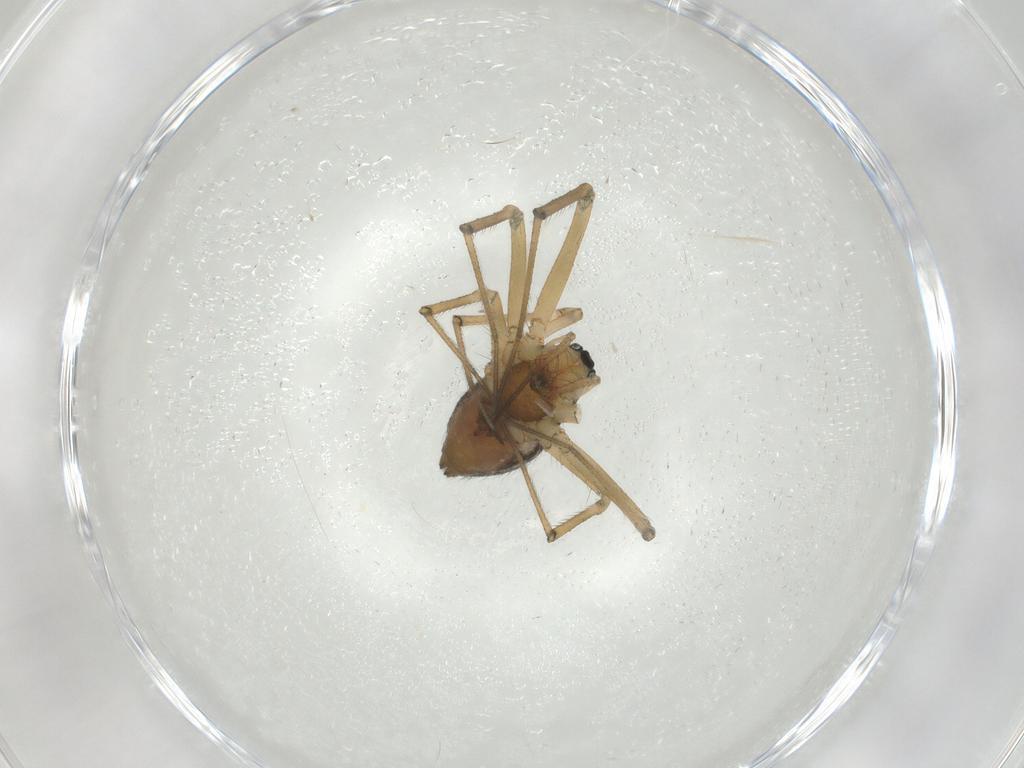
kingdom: Animalia
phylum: Arthropoda
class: Arachnida
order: Araneae
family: Linyphiidae
